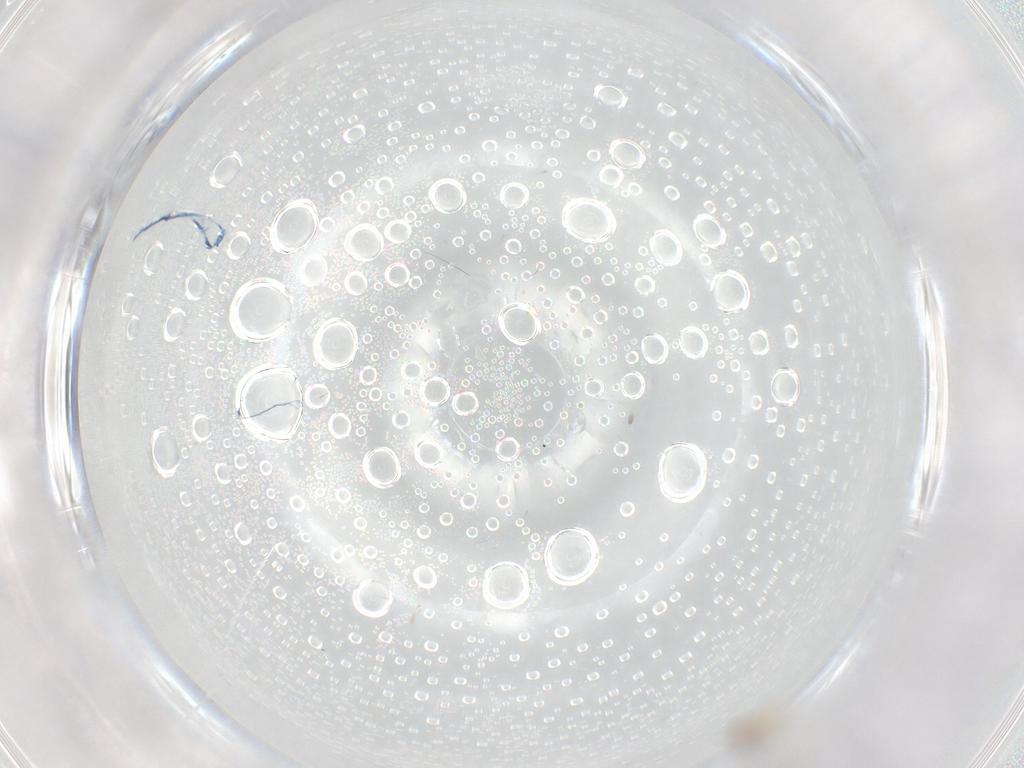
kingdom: Animalia
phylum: Arthropoda
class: Insecta
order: Diptera
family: Cecidomyiidae
